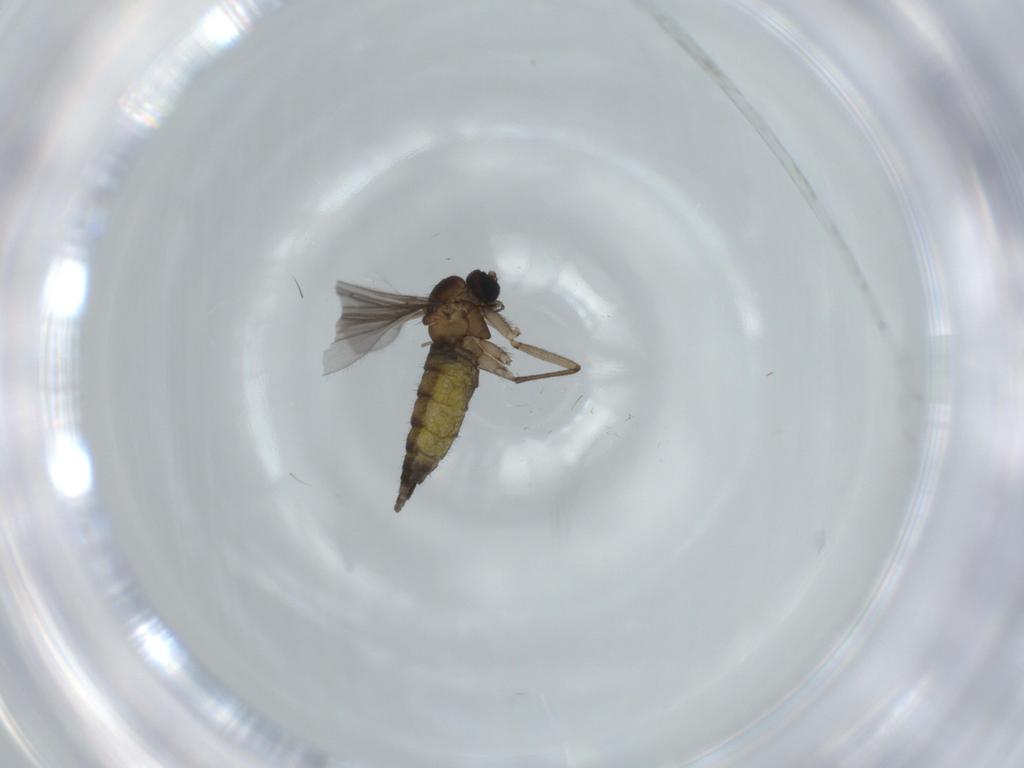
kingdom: Animalia
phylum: Arthropoda
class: Insecta
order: Diptera
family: Sciaridae
